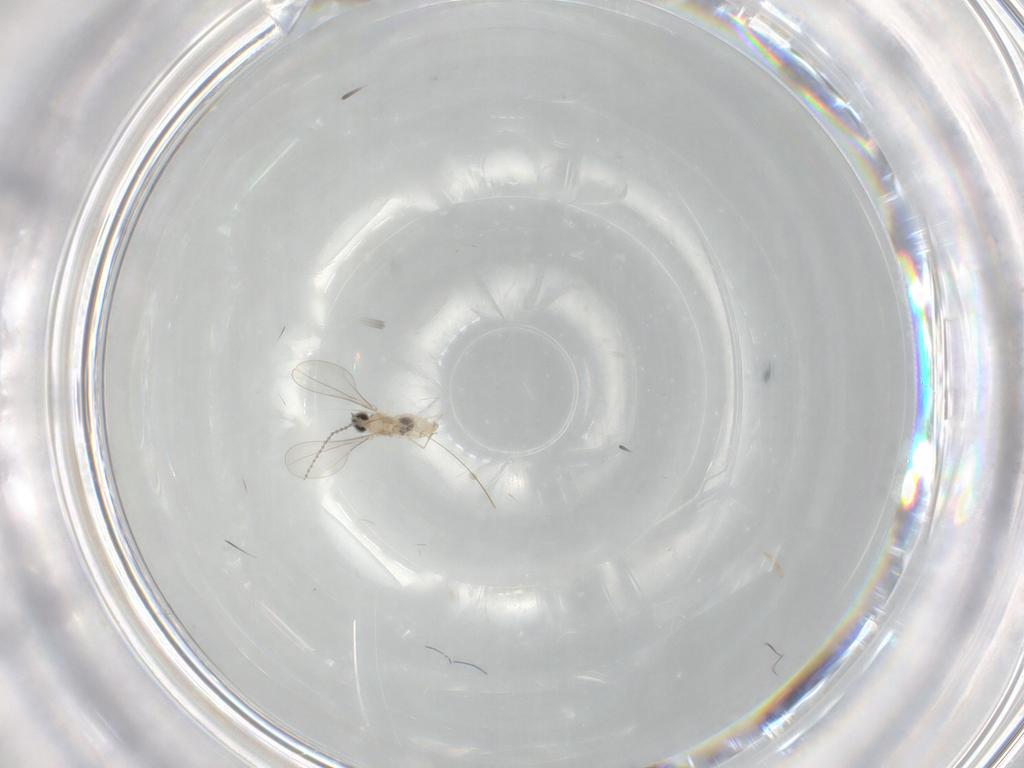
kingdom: Animalia
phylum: Arthropoda
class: Insecta
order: Diptera
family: Cecidomyiidae
